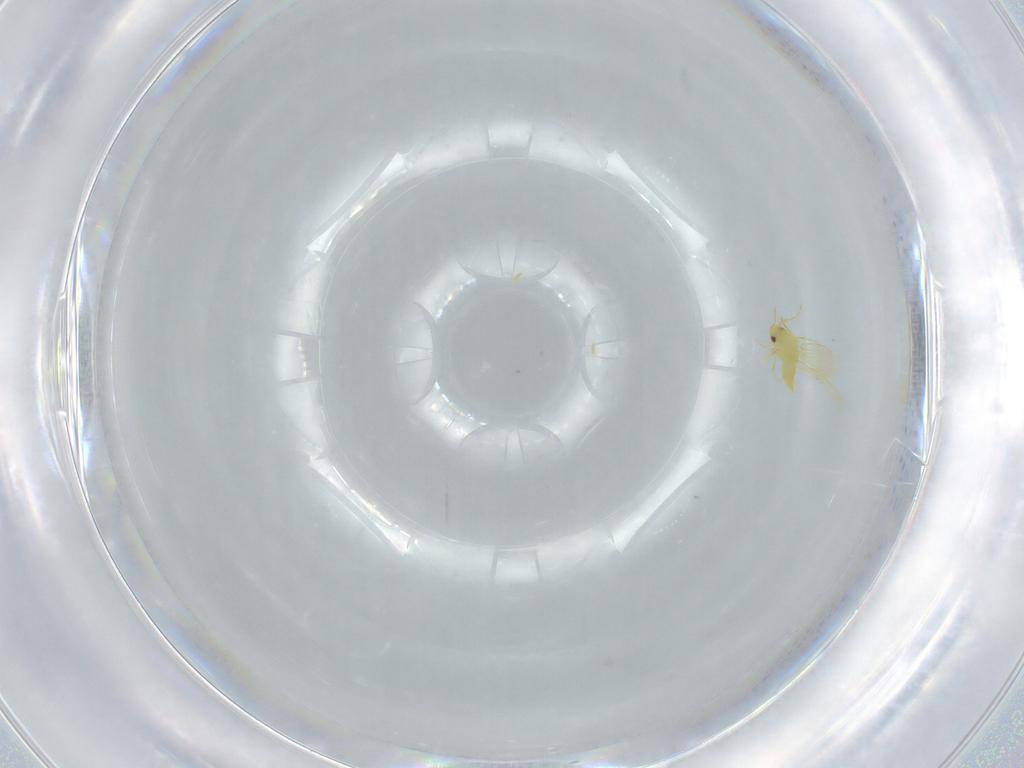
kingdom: Animalia
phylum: Arthropoda
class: Insecta
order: Hemiptera
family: Aleyrodidae
